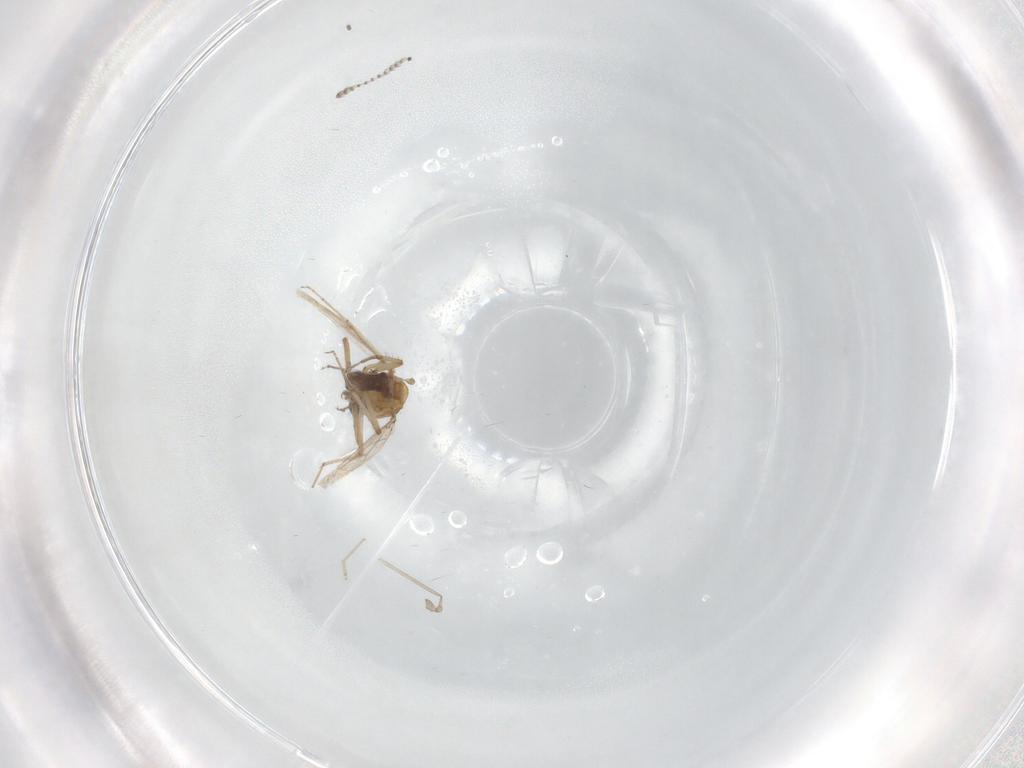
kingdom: Animalia
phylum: Arthropoda
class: Insecta
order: Diptera
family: Psychodidae
